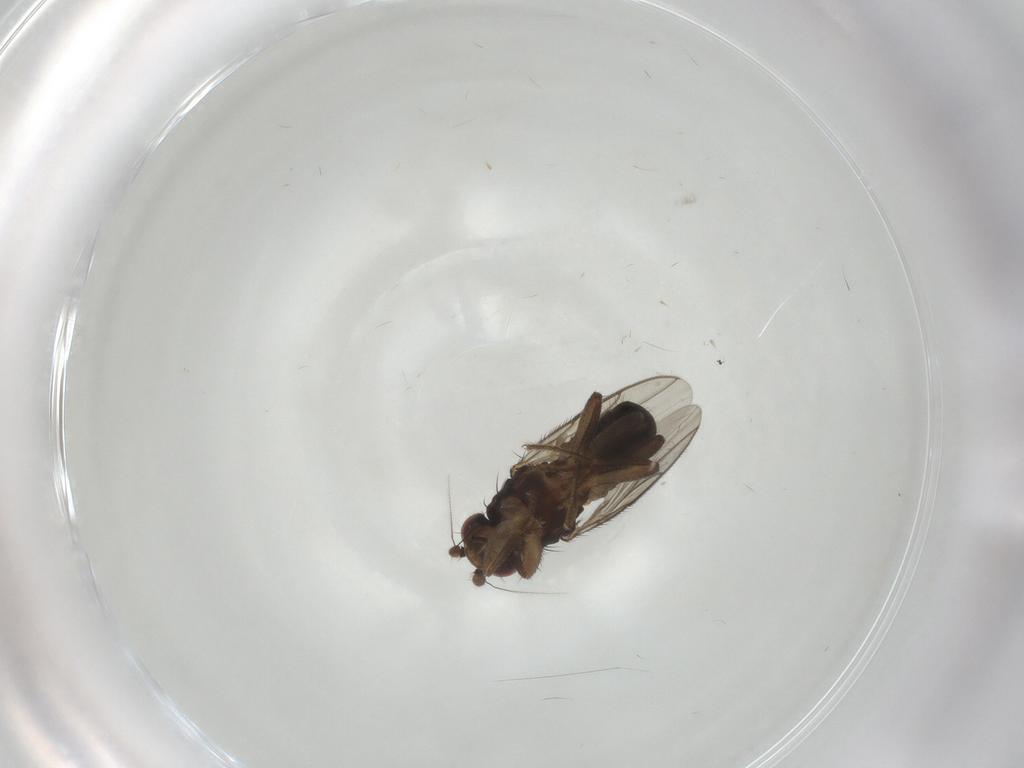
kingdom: Animalia
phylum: Arthropoda
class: Insecta
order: Diptera
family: Sphaeroceridae
